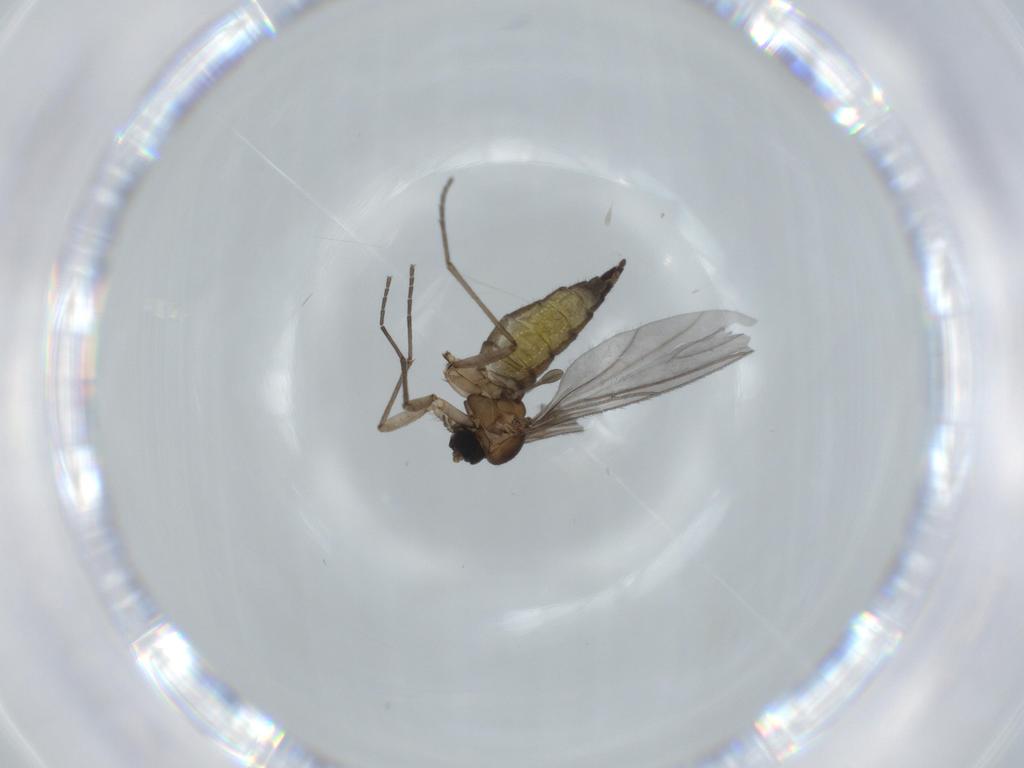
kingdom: Animalia
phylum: Arthropoda
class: Insecta
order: Diptera
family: Sciaridae
